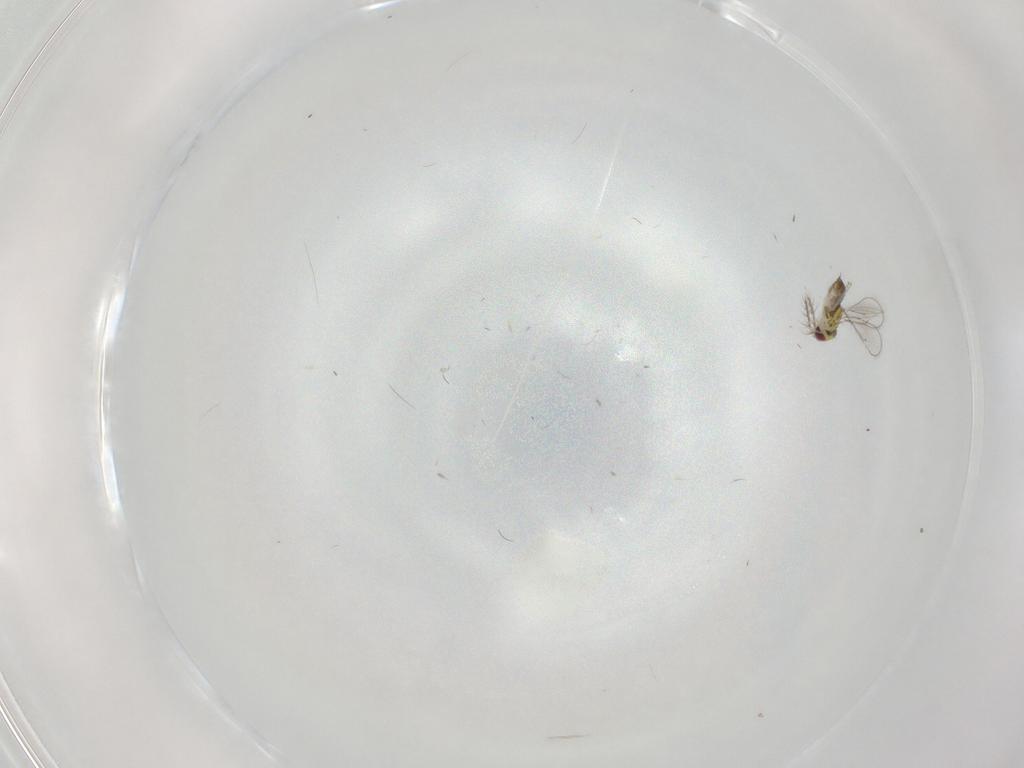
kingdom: Animalia
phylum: Arthropoda
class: Insecta
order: Hymenoptera
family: Eulophidae
